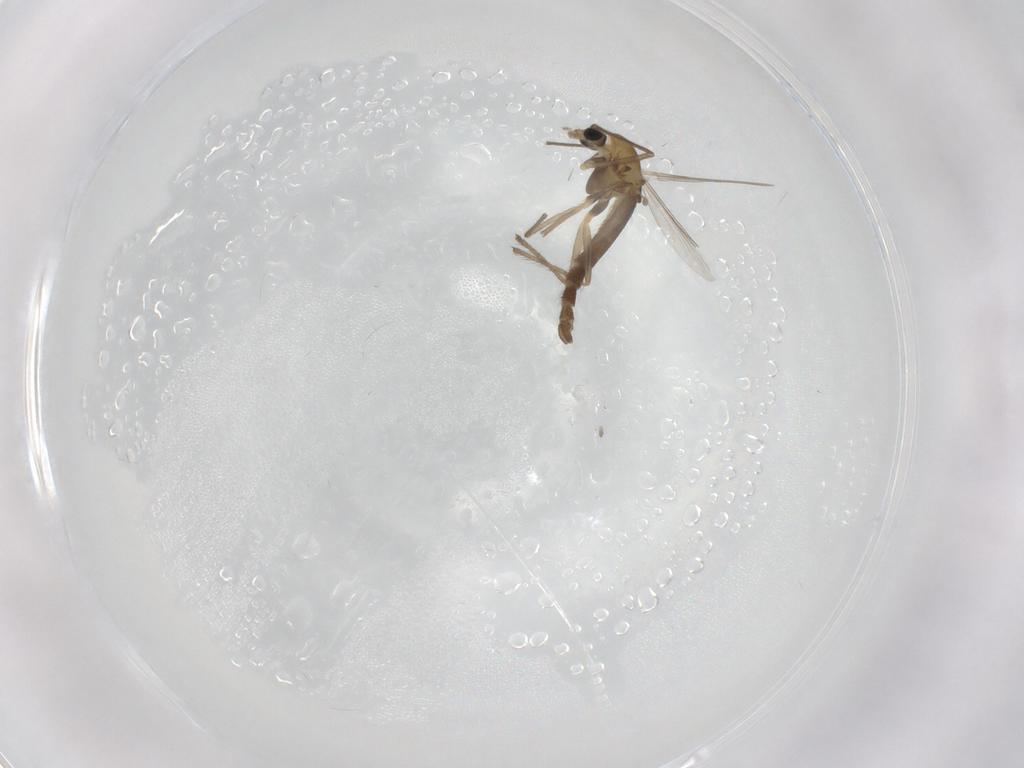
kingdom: Animalia
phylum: Arthropoda
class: Insecta
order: Diptera
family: Chironomidae
